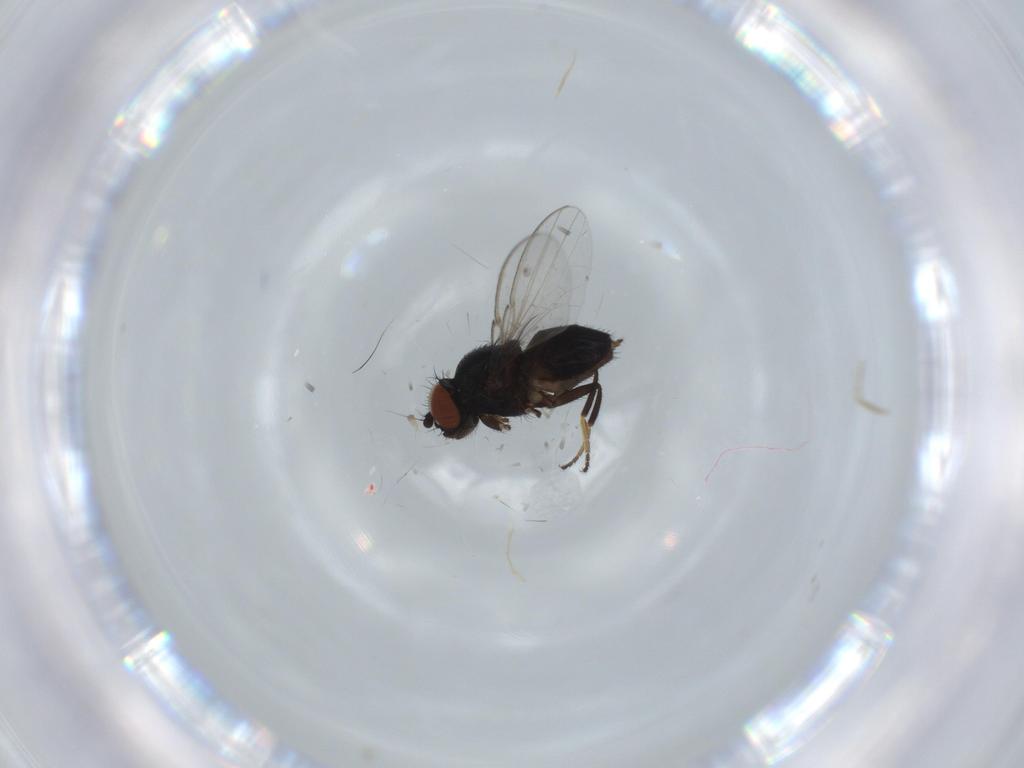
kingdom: Animalia
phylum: Arthropoda
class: Insecta
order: Diptera
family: Milichiidae
